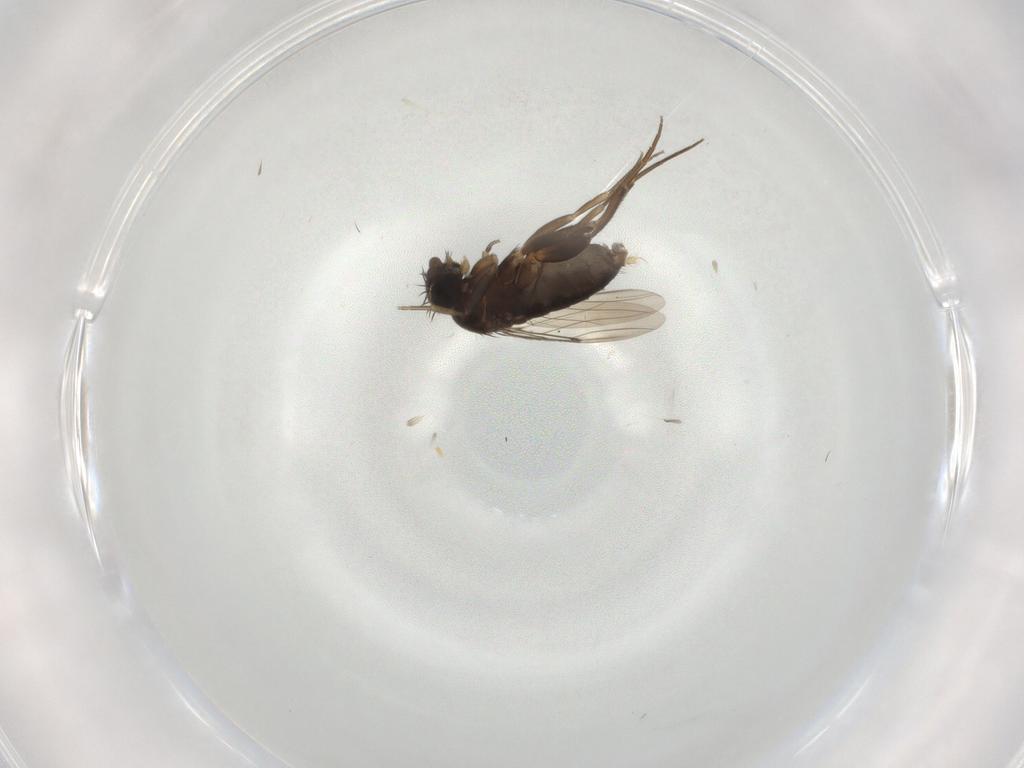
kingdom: Animalia
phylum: Arthropoda
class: Insecta
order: Diptera
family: Phoridae
